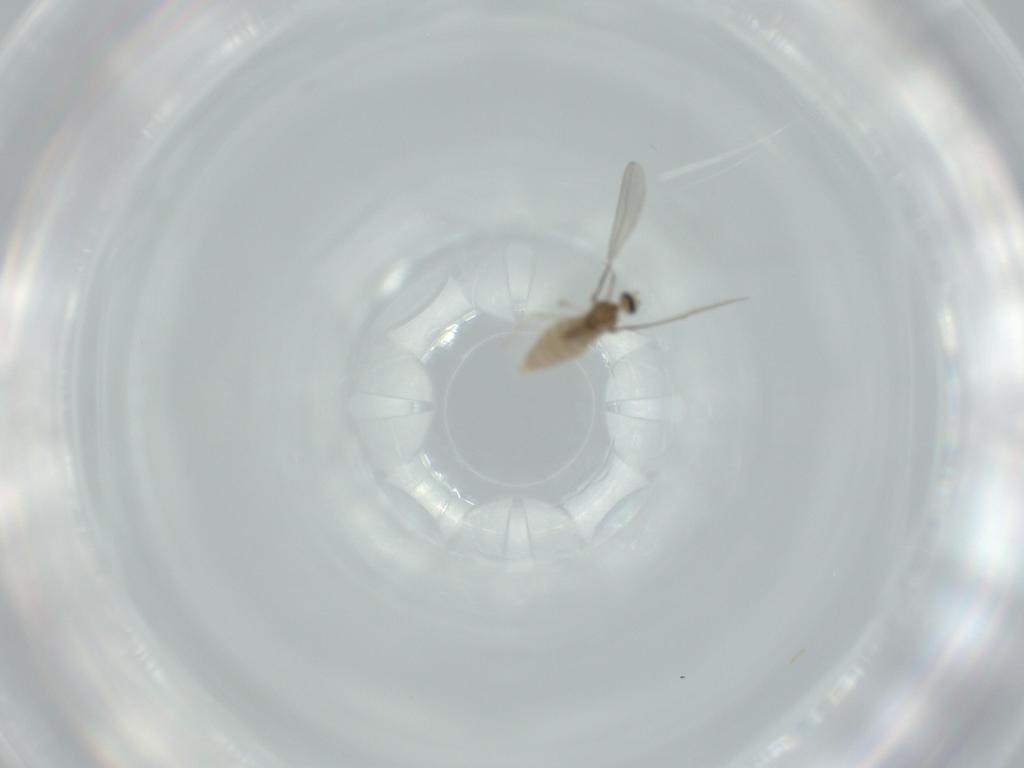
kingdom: Animalia
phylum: Arthropoda
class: Insecta
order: Diptera
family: Cecidomyiidae
